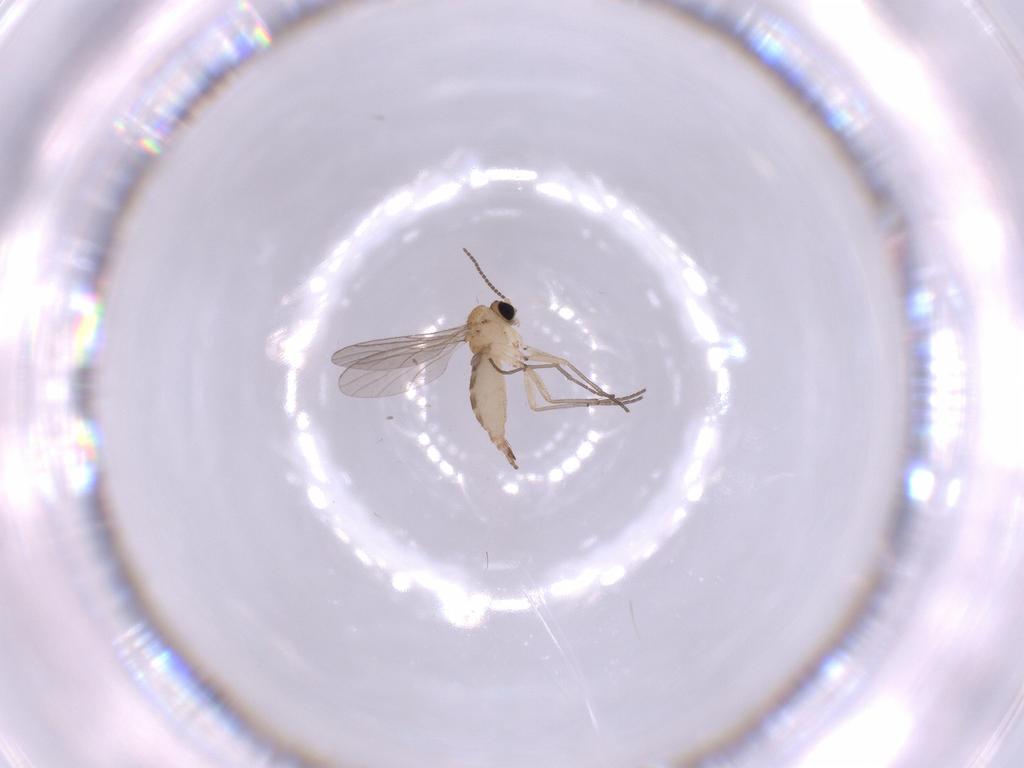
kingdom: Animalia
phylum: Arthropoda
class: Insecta
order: Diptera
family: Sciaridae
